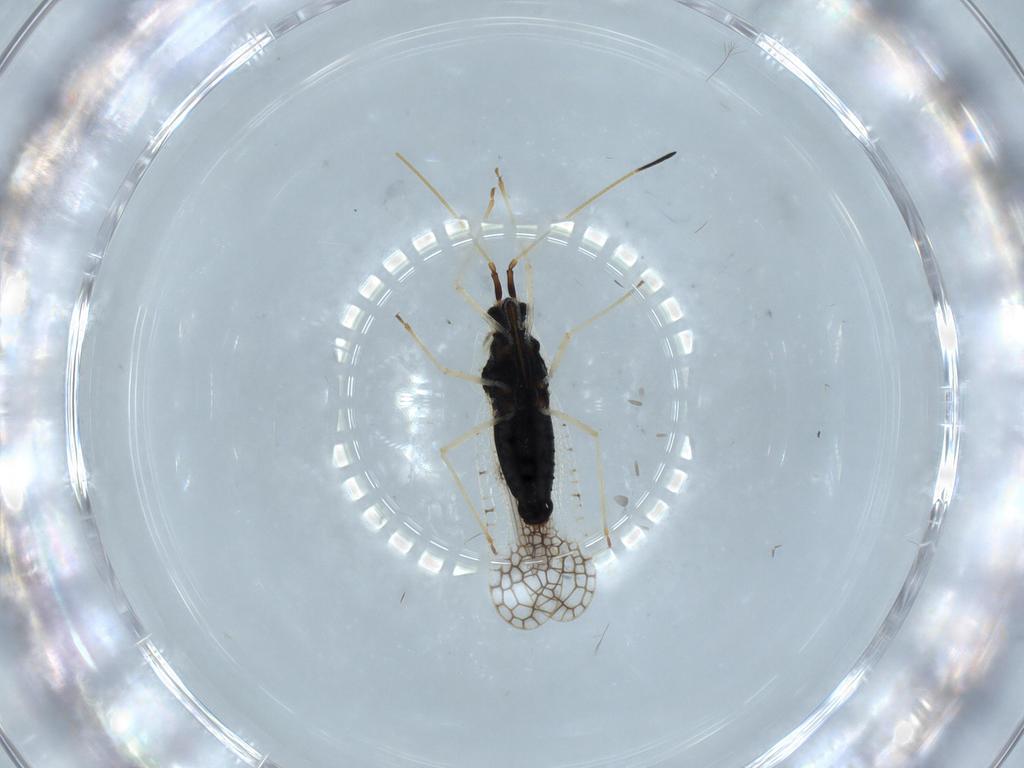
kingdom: Animalia
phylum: Arthropoda
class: Insecta
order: Hemiptera
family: Tingidae
